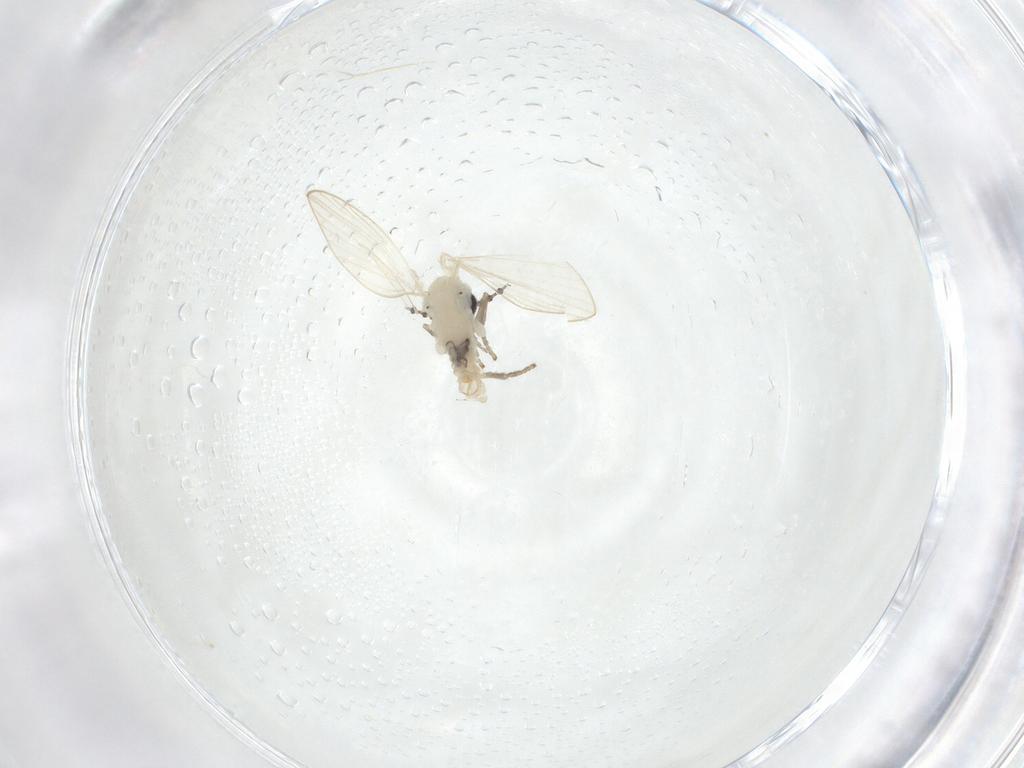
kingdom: Animalia
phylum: Arthropoda
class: Insecta
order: Diptera
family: Psychodidae
